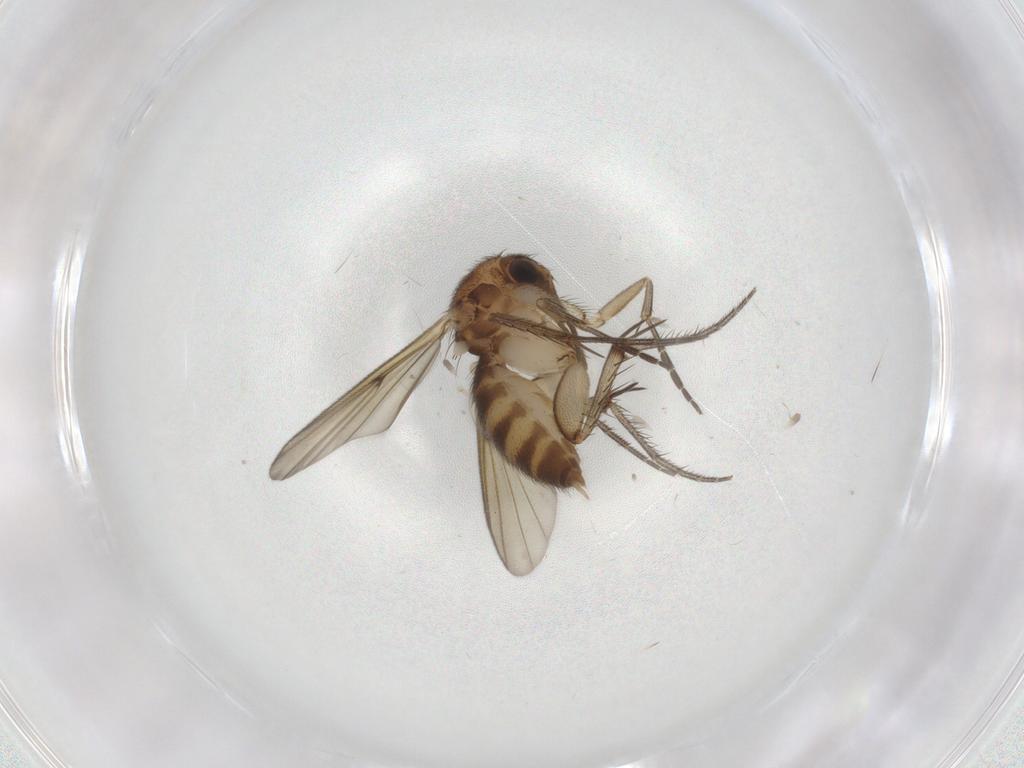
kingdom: Animalia
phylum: Arthropoda
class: Insecta
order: Diptera
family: Mycetophilidae
